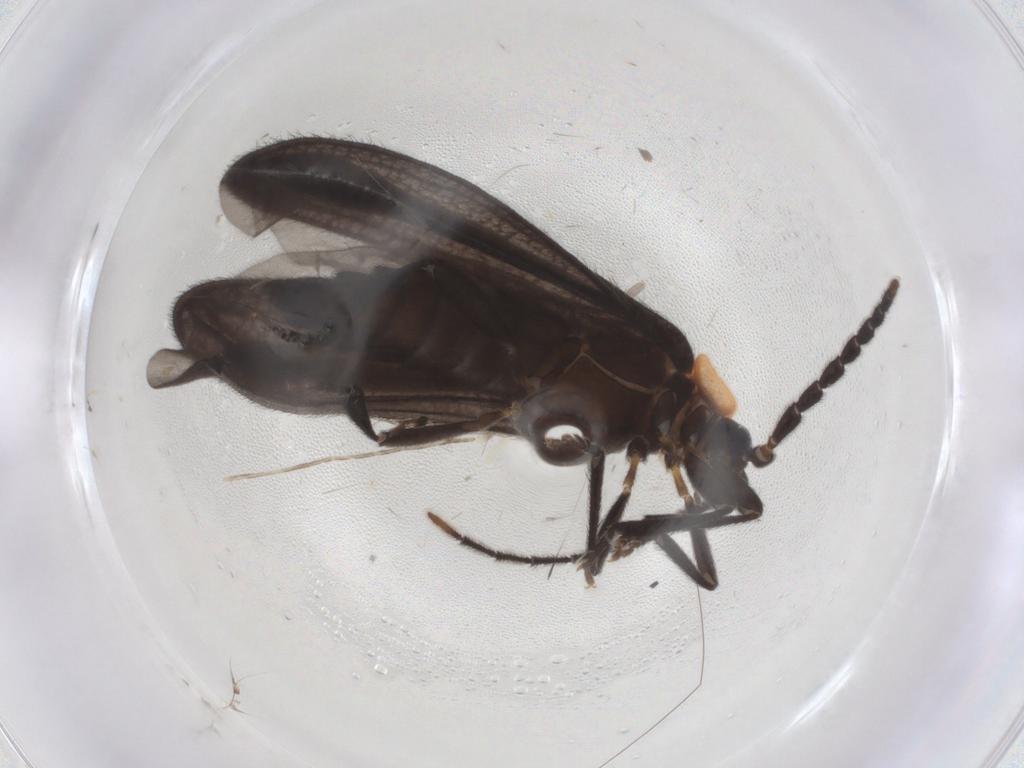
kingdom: Animalia
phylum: Arthropoda
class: Insecta
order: Coleoptera
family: Lycidae
